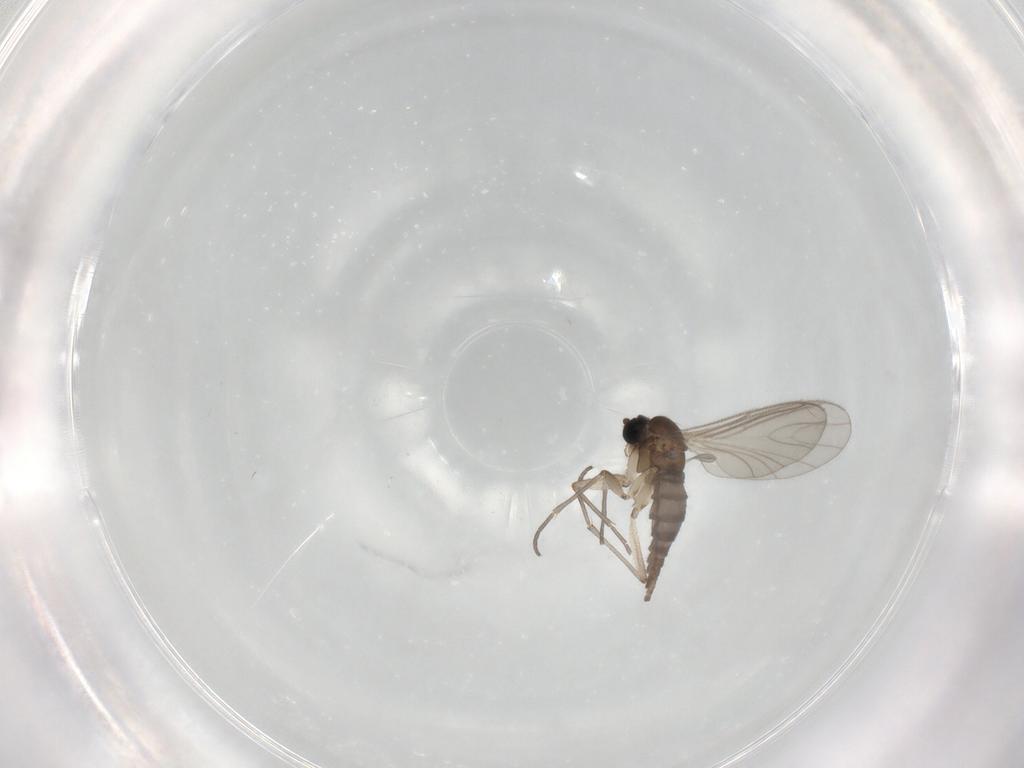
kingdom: Animalia
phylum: Arthropoda
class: Insecta
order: Diptera
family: Sciaridae
